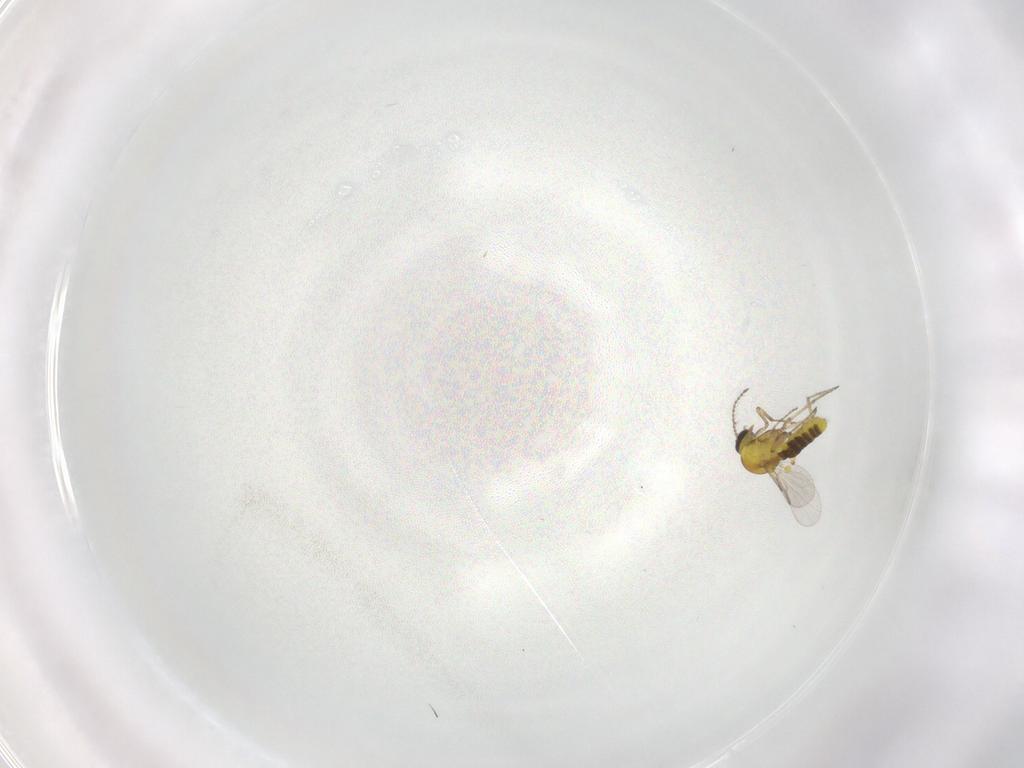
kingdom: Animalia
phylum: Arthropoda
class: Insecta
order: Diptera
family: Ceratopogonidae
